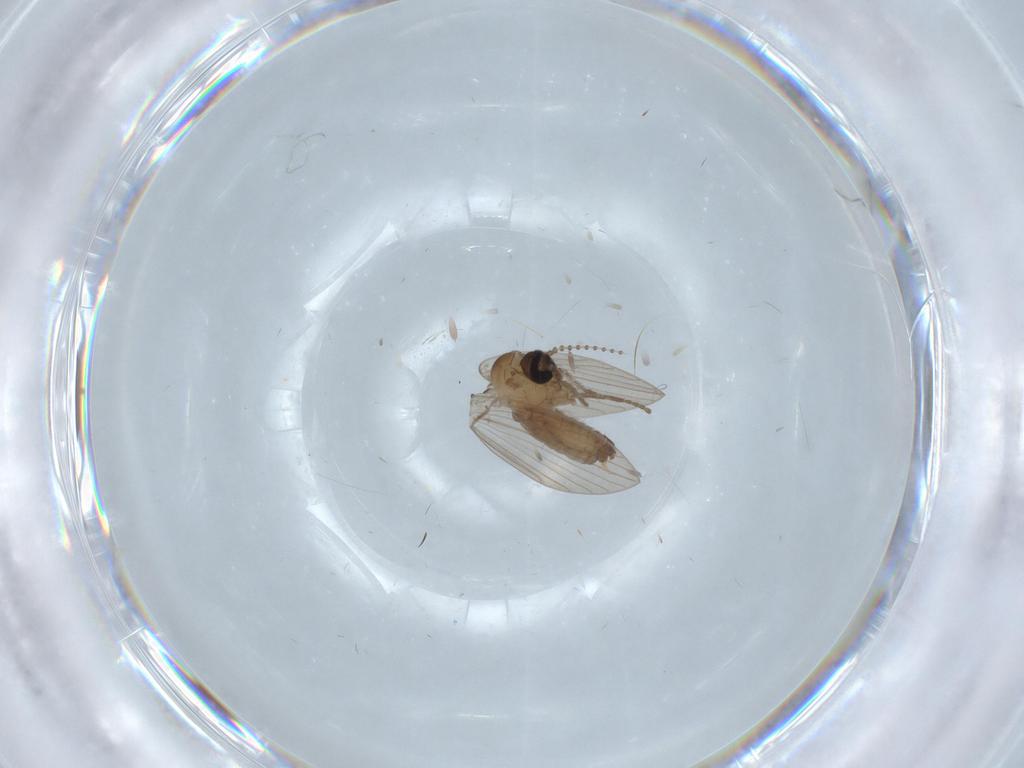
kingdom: Animalia
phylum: Arthropoda
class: Insecta
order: Diptera
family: Psychodidae
